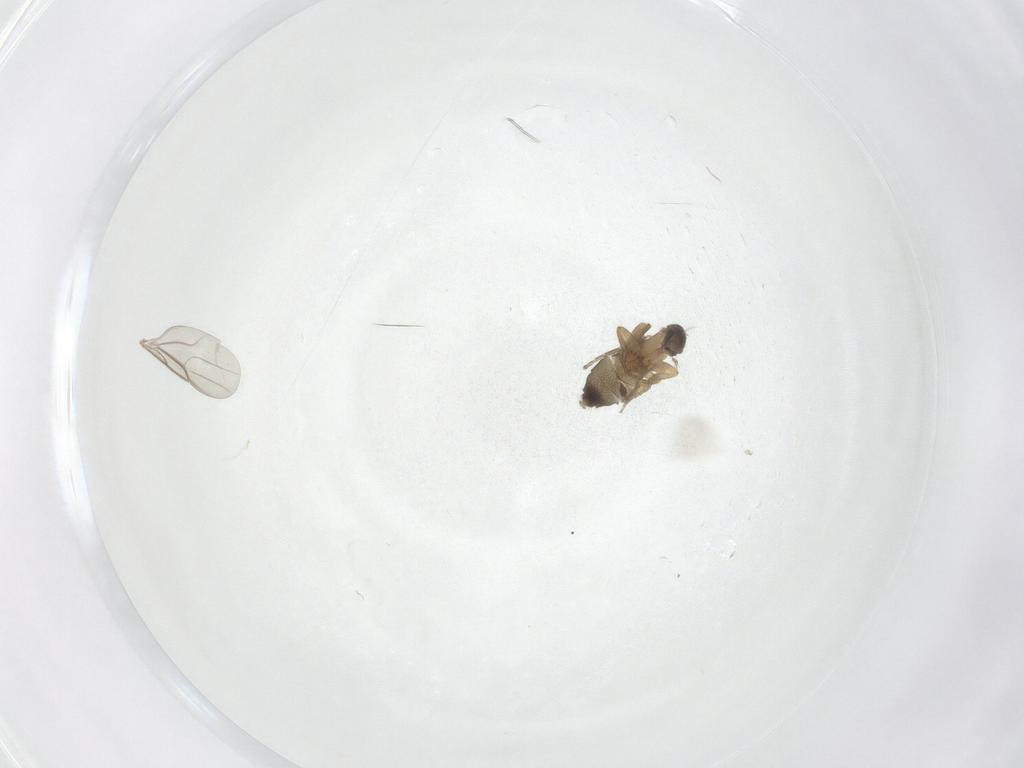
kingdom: Animalia
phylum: Arthropoda
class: Insecta
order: Diptera
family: Phoridae
